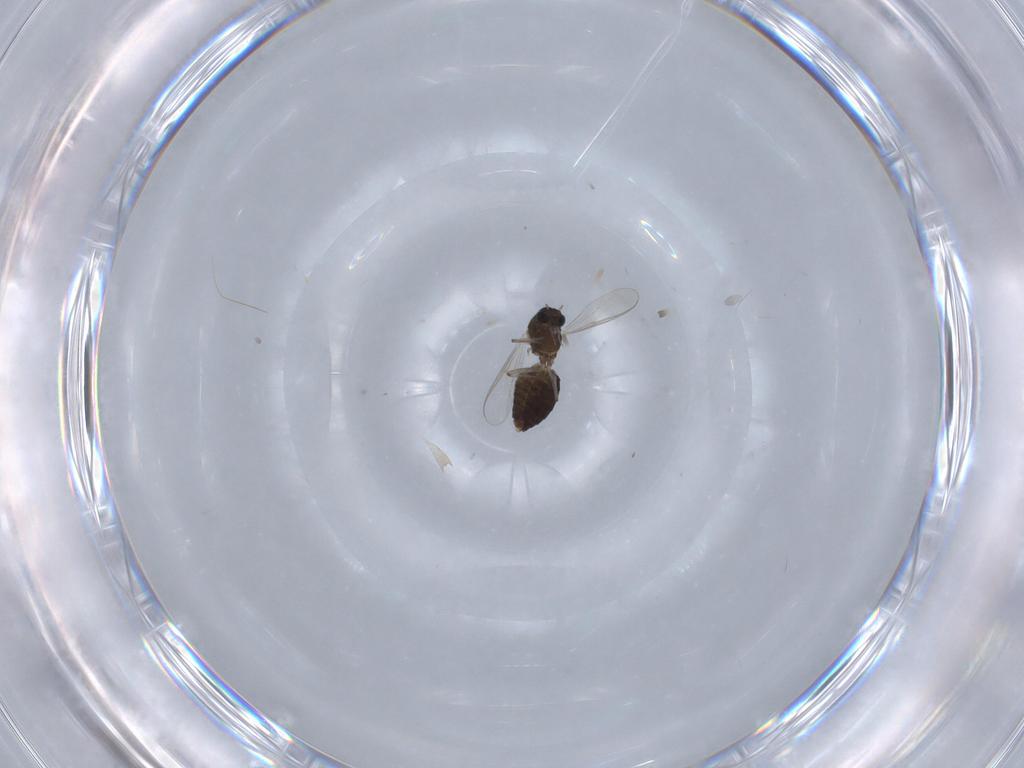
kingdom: Animalia
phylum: Arthropoda
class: Insecta
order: Diptera
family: Chironomidae
